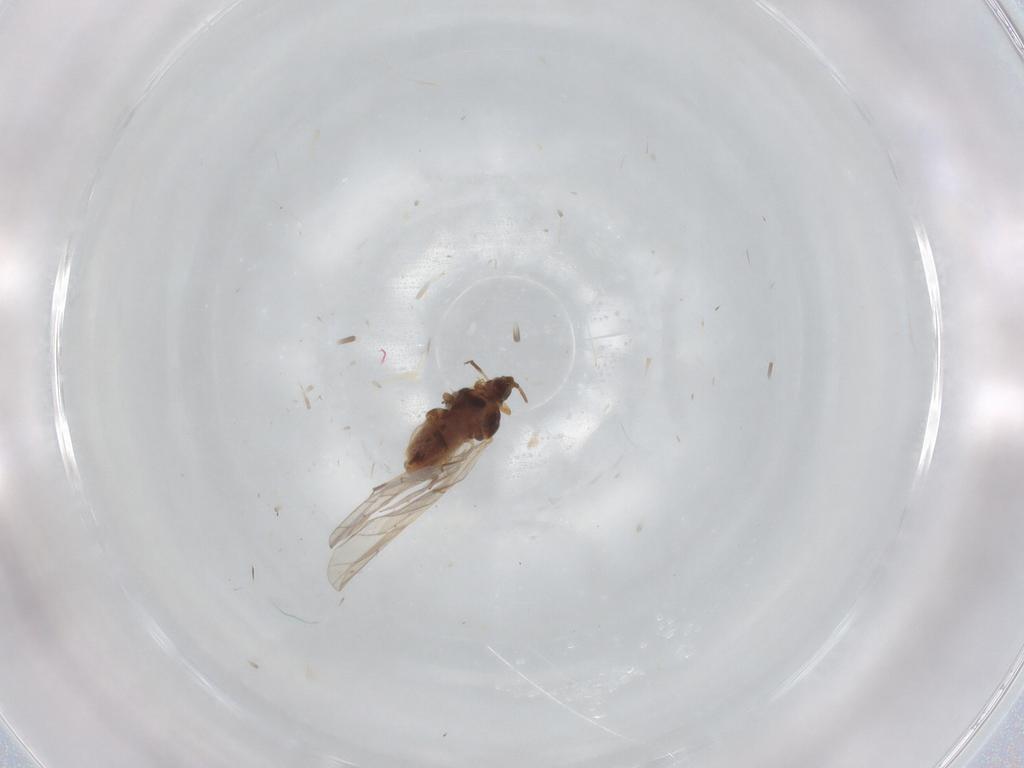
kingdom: Animalia
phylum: Arthropoda
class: Insecta
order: Hemiptera
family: Aphididae
